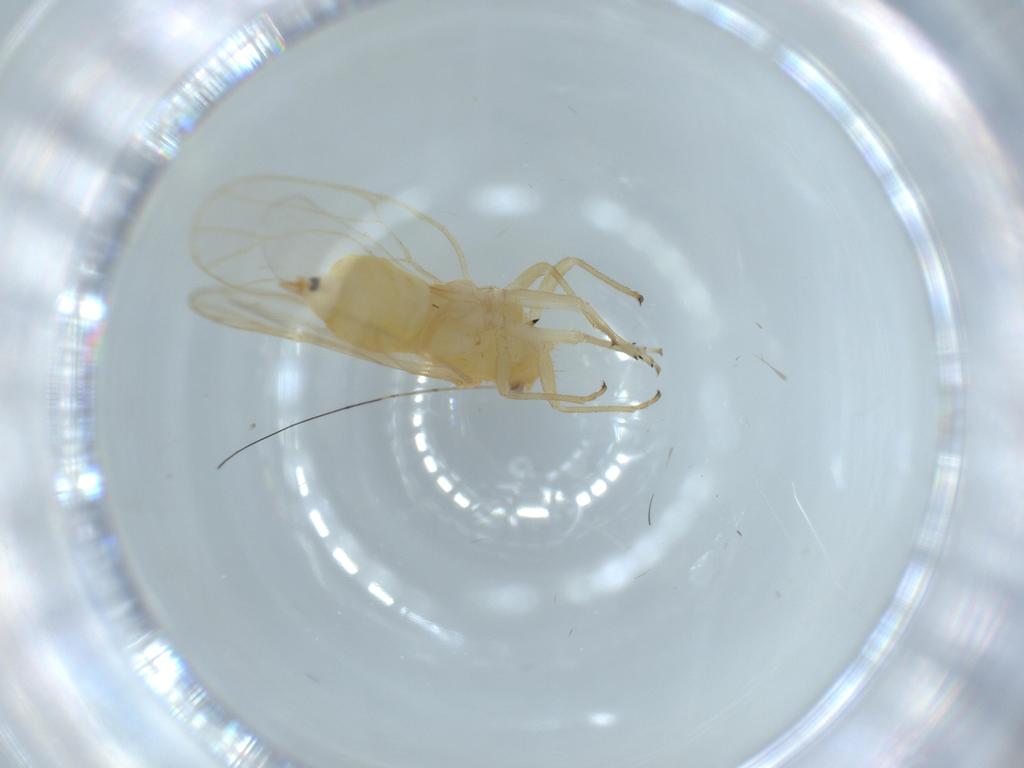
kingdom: Animalia
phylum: Arthropoda
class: Insecta
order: Hemiptera
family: Psyllidae
